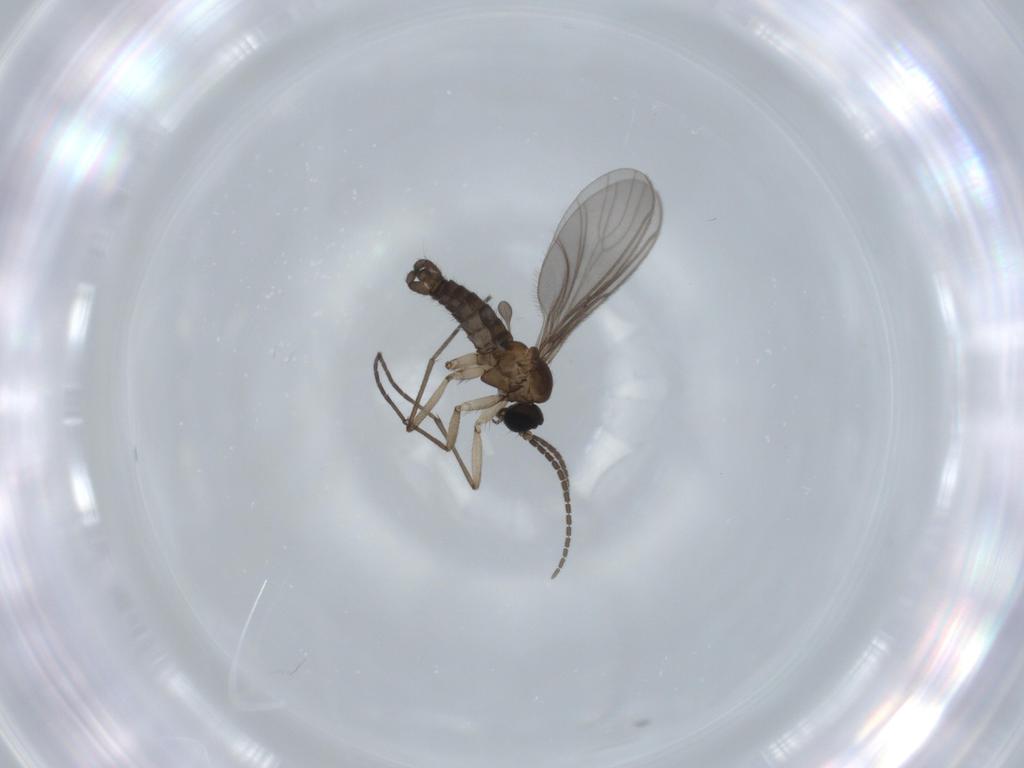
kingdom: Animalia
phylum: Arthropoda
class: Insecta
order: Diptera
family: Sciaridae
